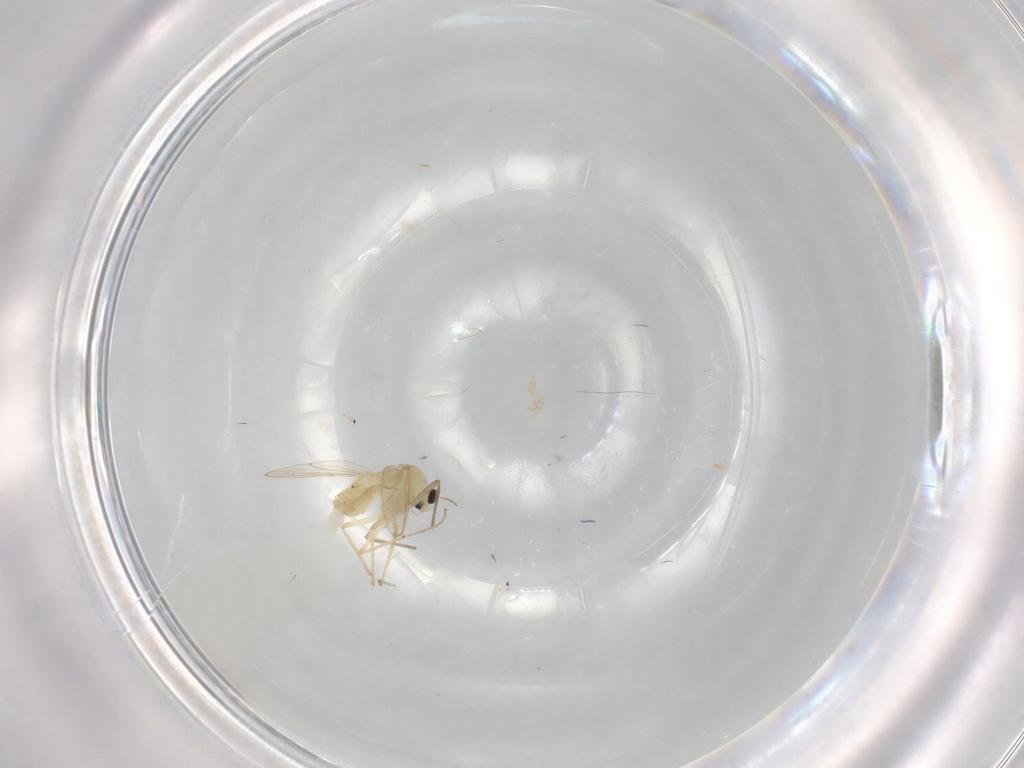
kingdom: Animalia
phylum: Arthropoda
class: Insecta
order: Diptera
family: Chironomidae
